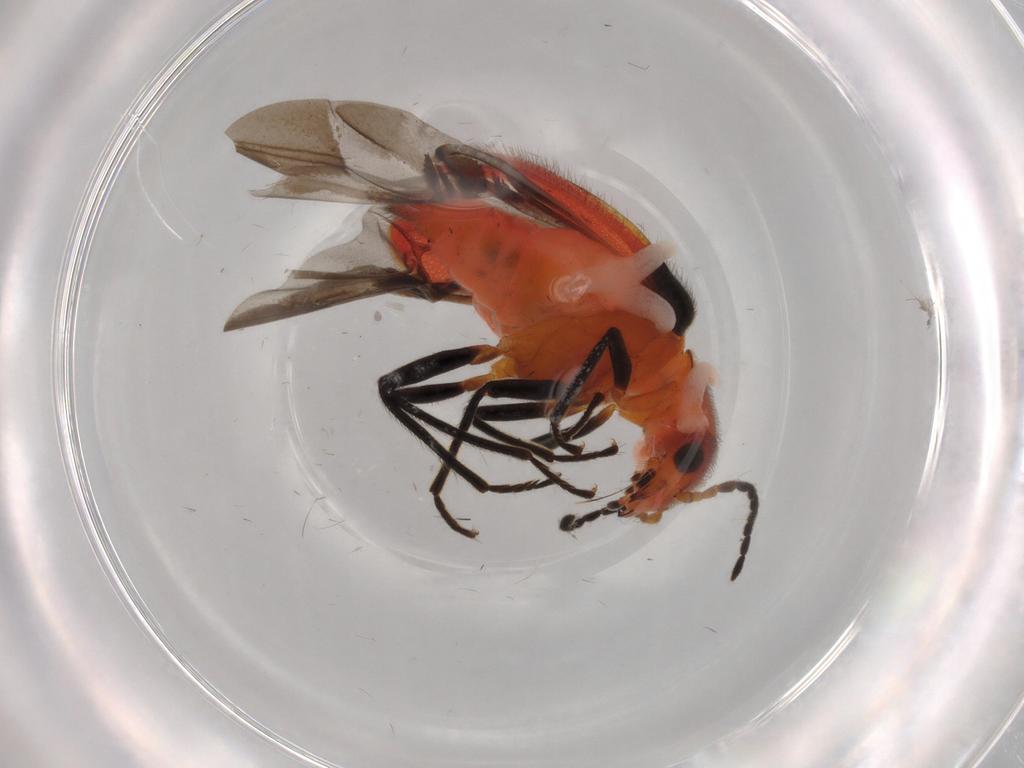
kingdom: Animalia
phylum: Arthropoda
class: Insecta
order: Coleoptera
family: Melyridae
